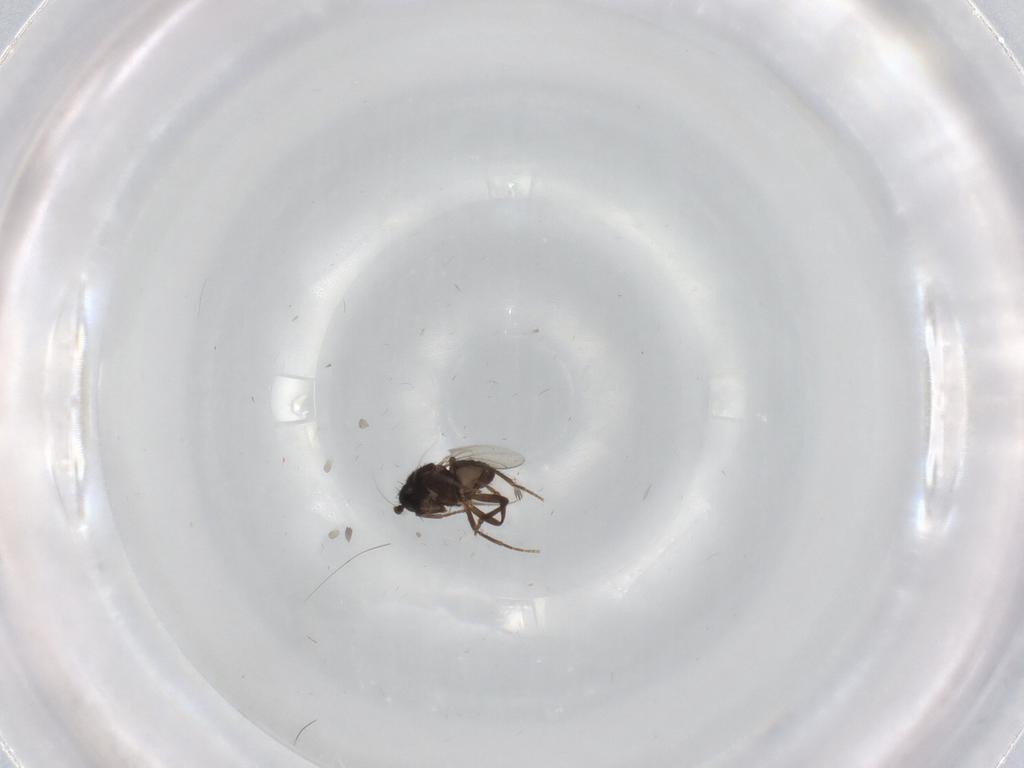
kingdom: Animalia
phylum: Arthropoda
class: Insecta
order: Diptera
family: Sphaeroceridae
